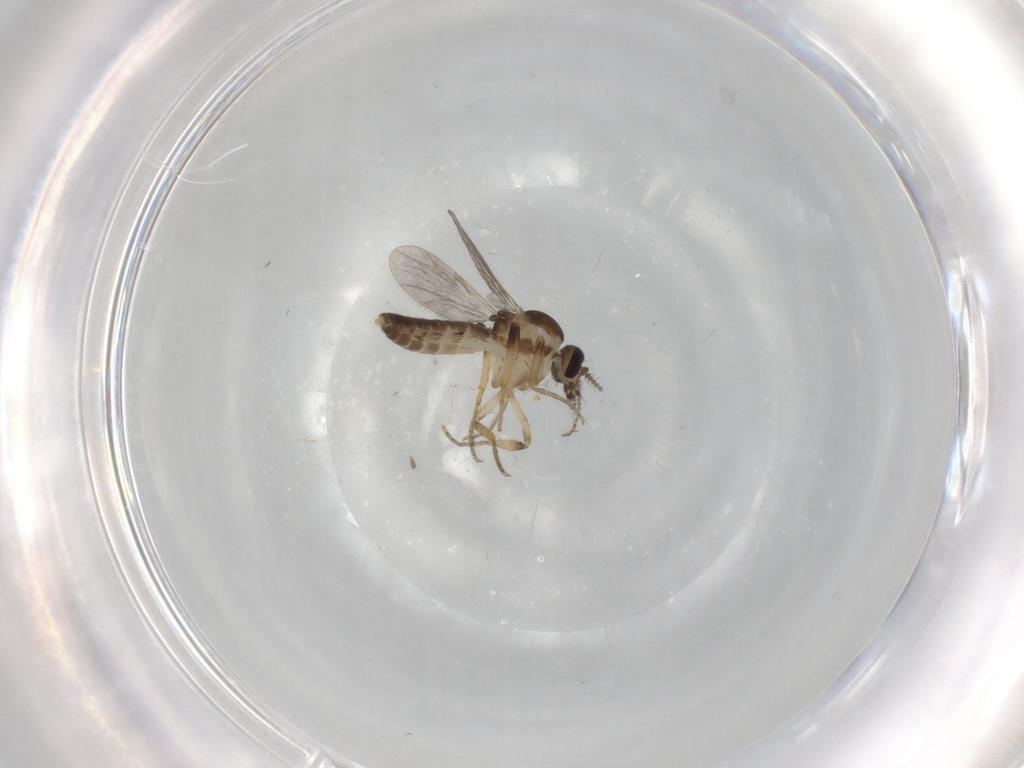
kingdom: Animalia
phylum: Arthropoda
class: Insecta
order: Diptera
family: Ceratopogonidae
